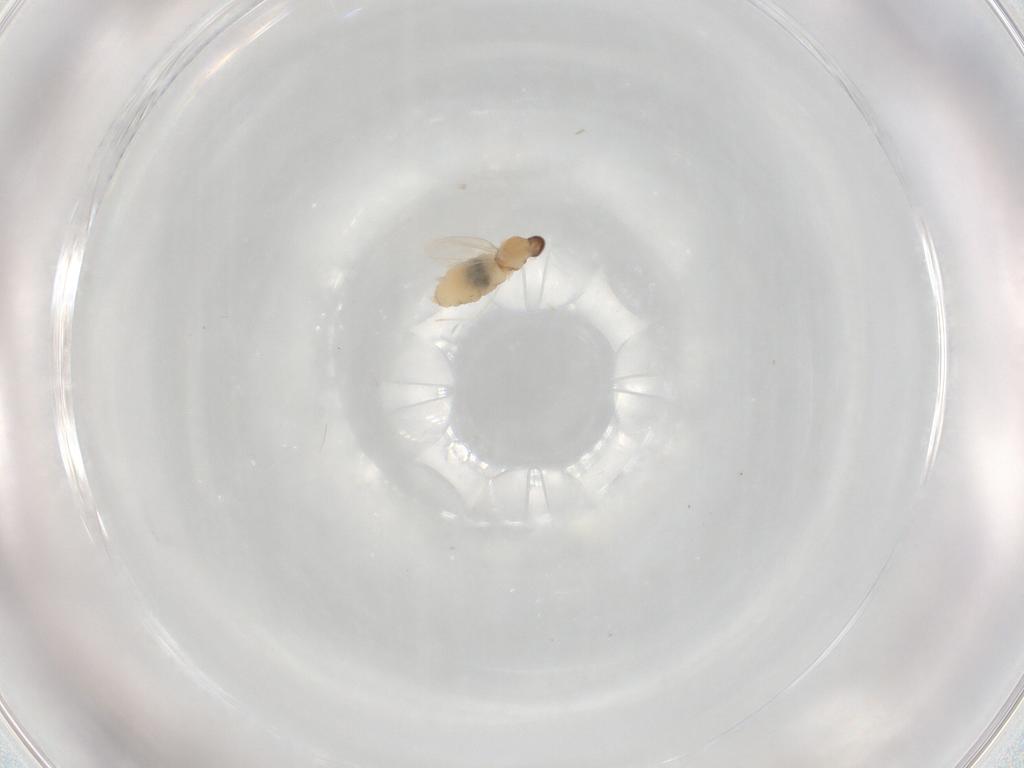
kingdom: Animalia
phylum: Arthropoda
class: Insecta
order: Diptera
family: Cecidomyiidae
